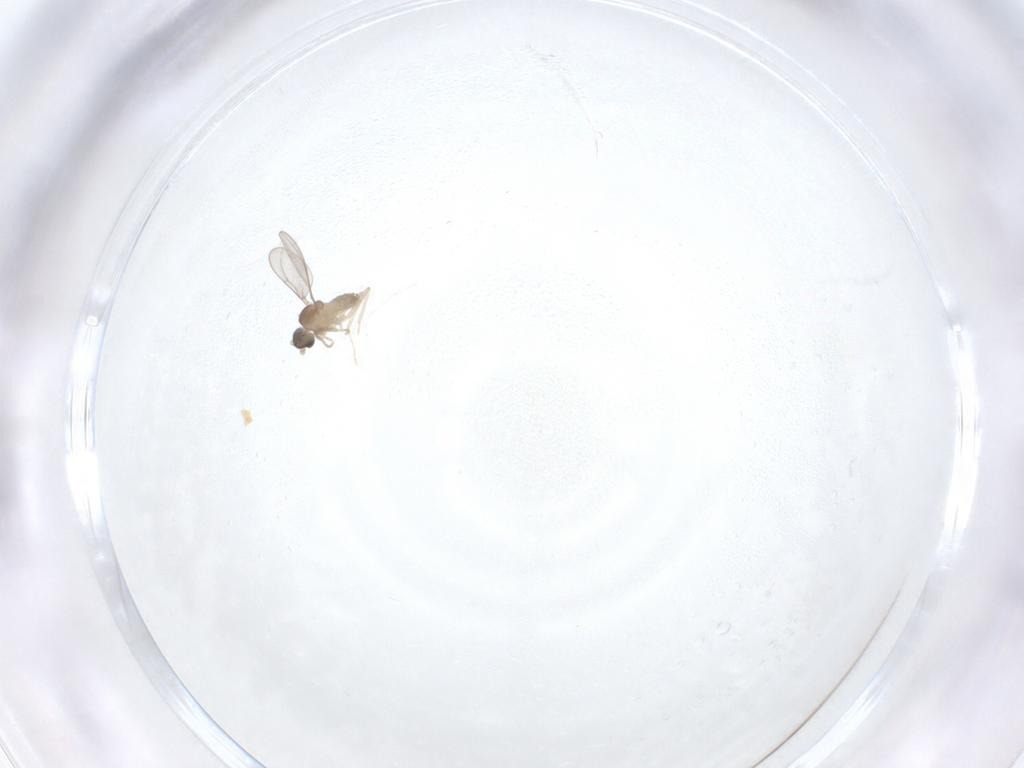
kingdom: Animalia
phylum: Arthropoda
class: Insecta
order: Diptera
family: Cecidomyiidae
